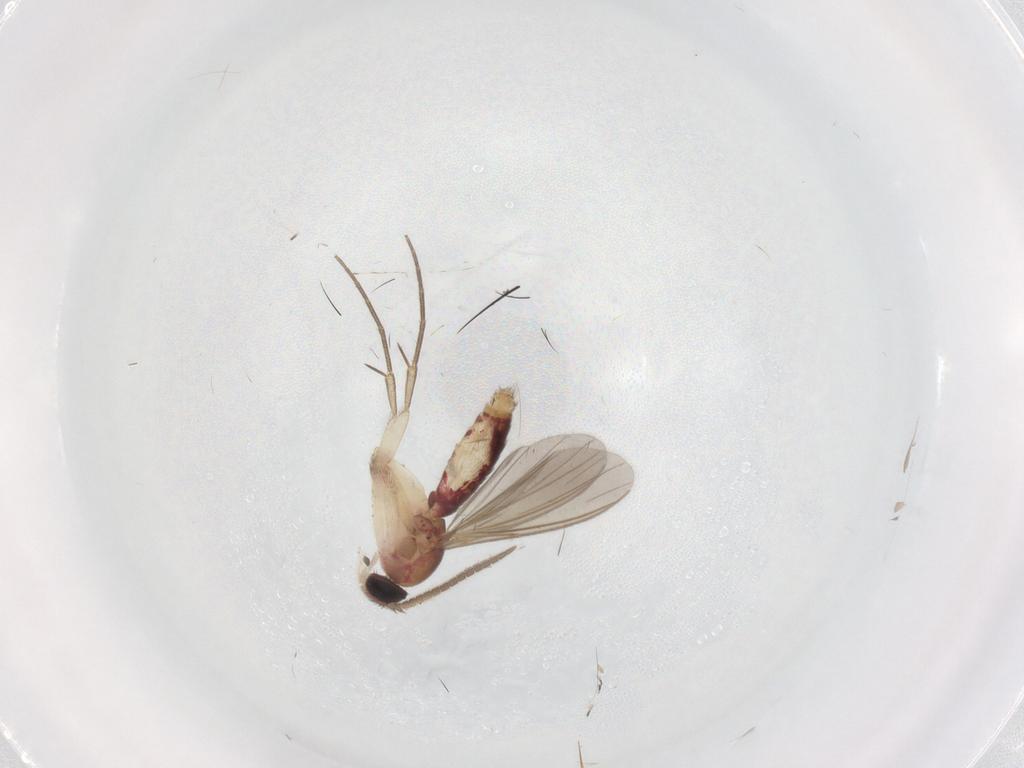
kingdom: Animalia
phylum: Arthropoda
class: Insecta
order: Diptera
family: Mycetophilidae
